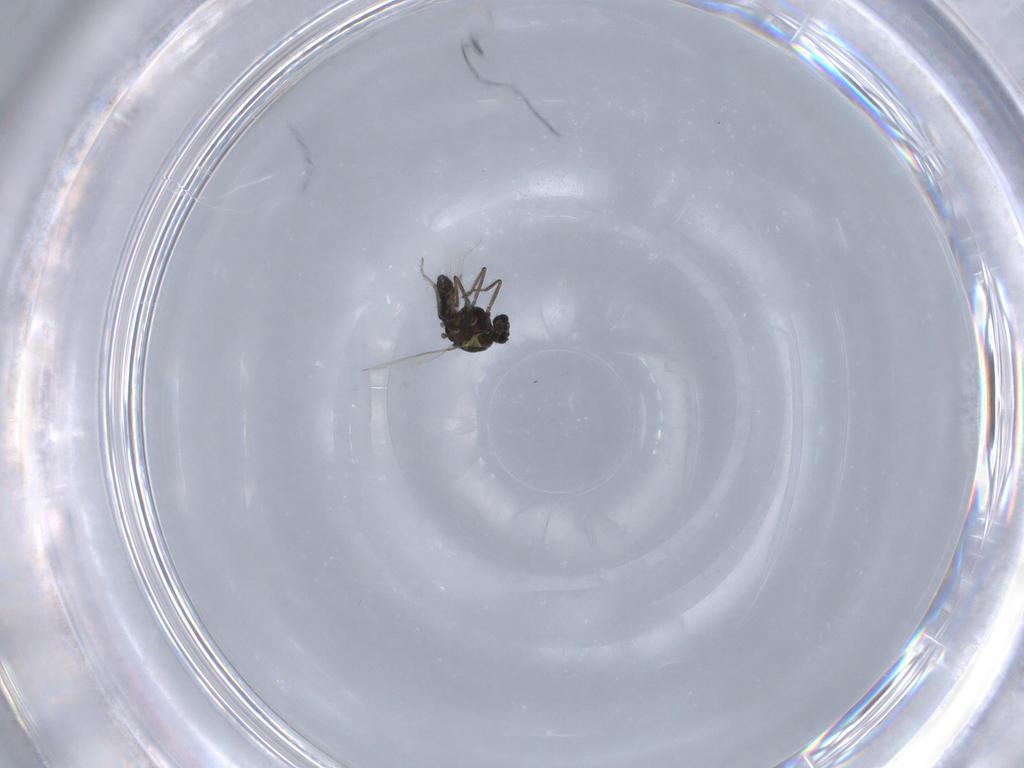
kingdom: Animalia
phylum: Arthropoda
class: Insecta
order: Diptera
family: Ceratopogonidae
